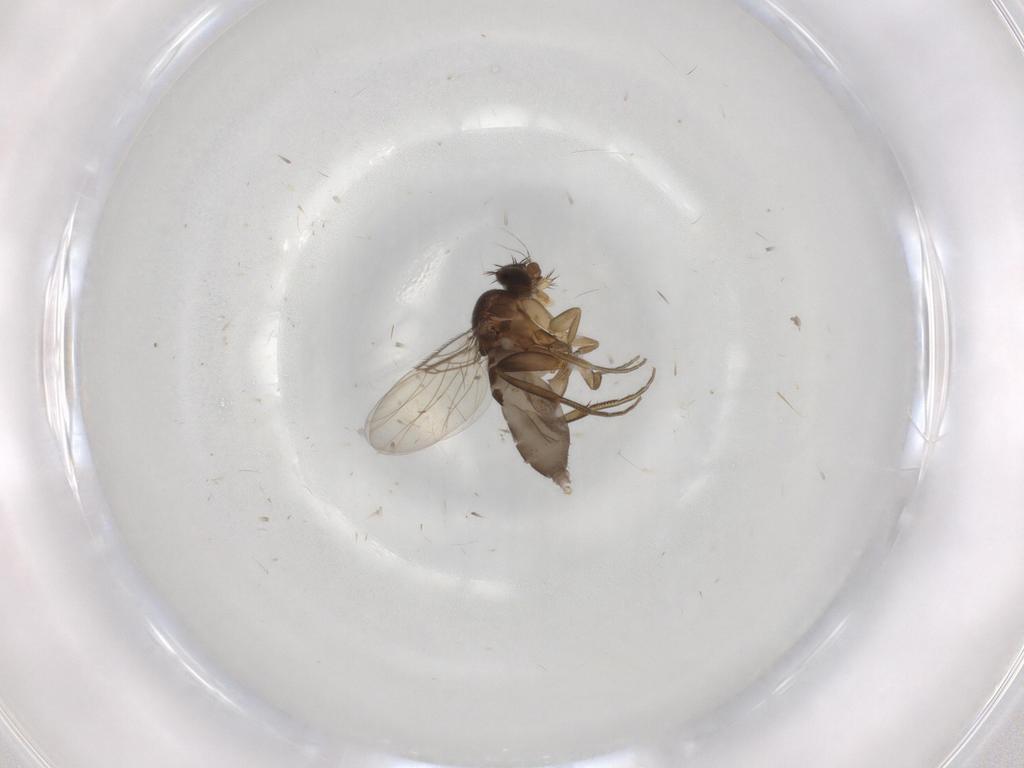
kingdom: Animalia
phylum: Arthropoda
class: Insecta
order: Diptera
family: Phoridae
